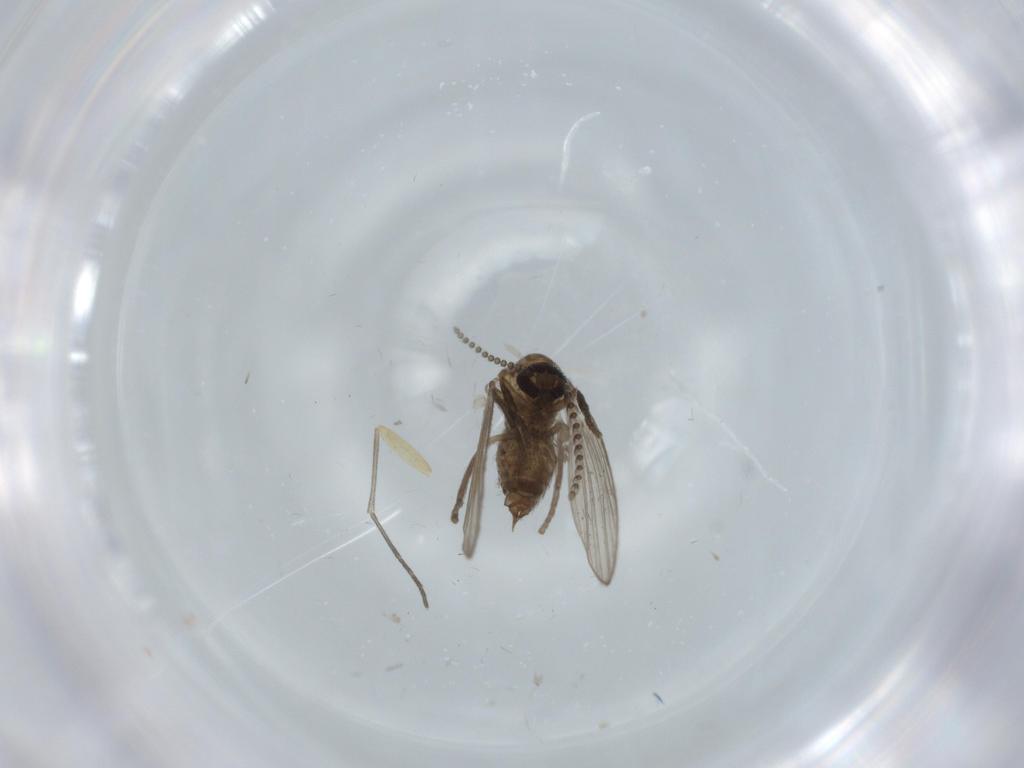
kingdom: Animalia
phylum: Arthropoda
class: Insecta
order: Diptera
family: Sciaridae
